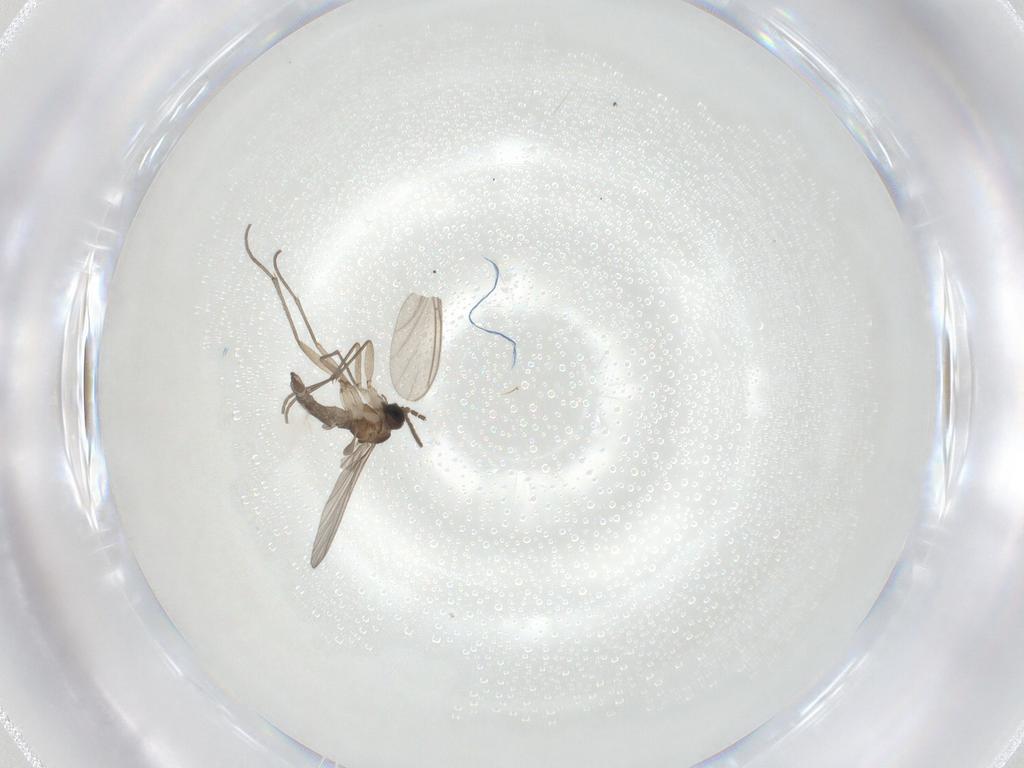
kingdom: Animalia
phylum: Arthropoda
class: Insecta
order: Diptera
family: Sciaridae
